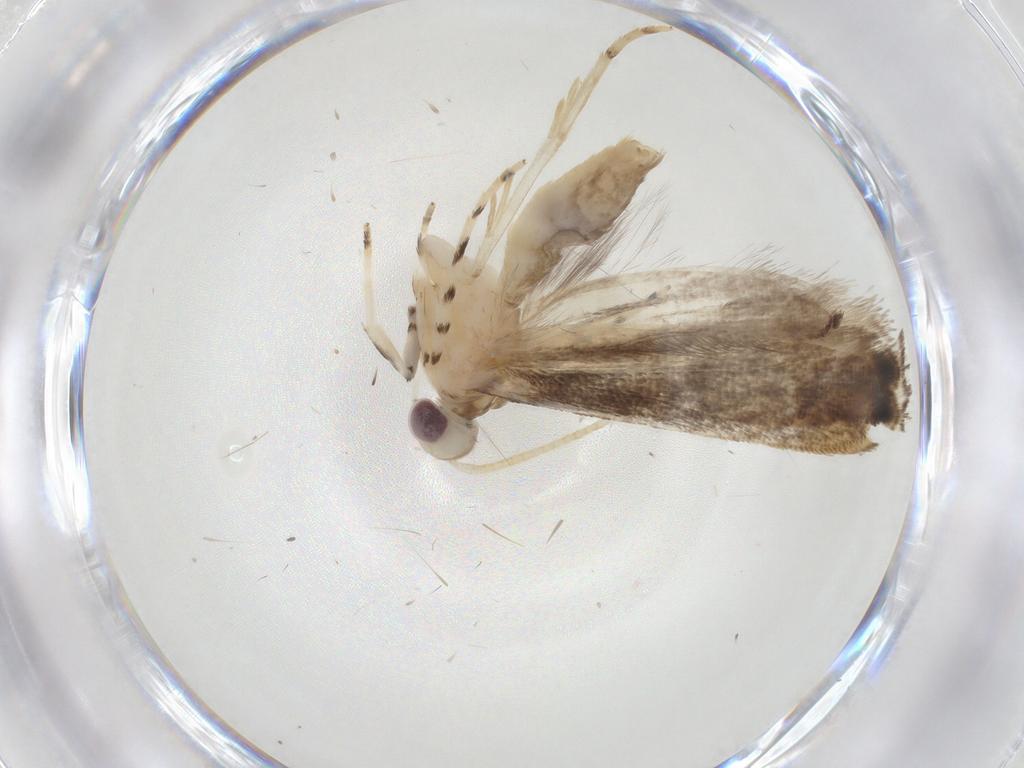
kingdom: Animalia
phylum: Arthropoda
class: Insecta
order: Lepidoptera
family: Gelechiidae
